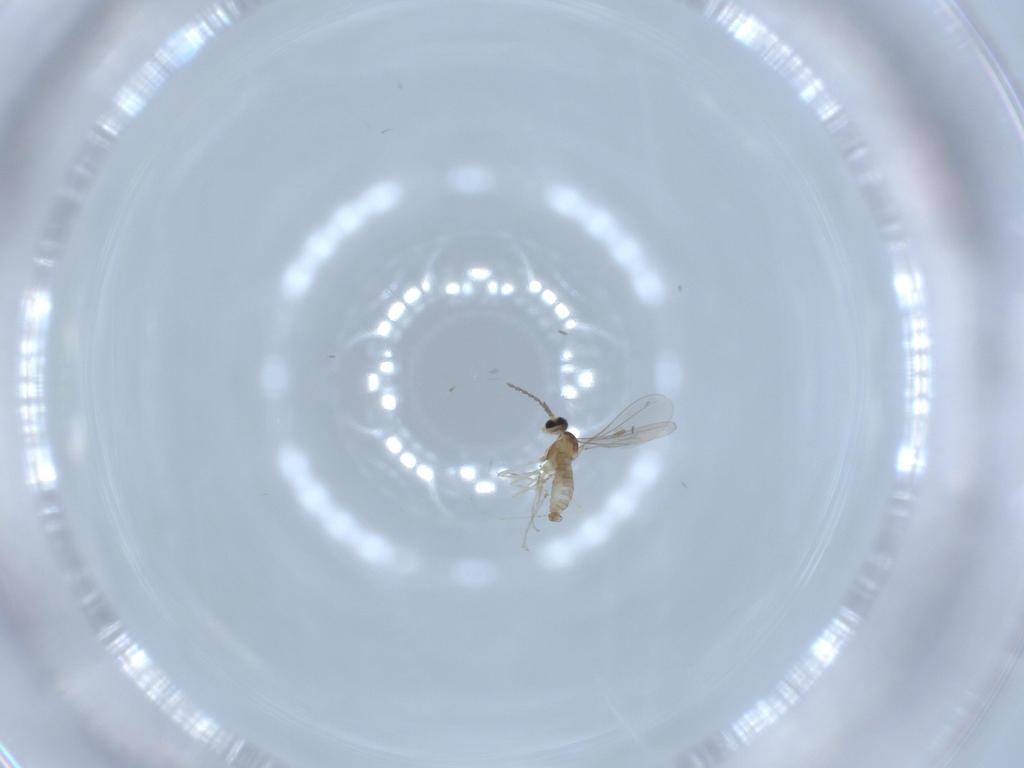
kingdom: Animalia
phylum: Arthropoda
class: Insecta
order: Diptera
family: Cecidomyiidae
